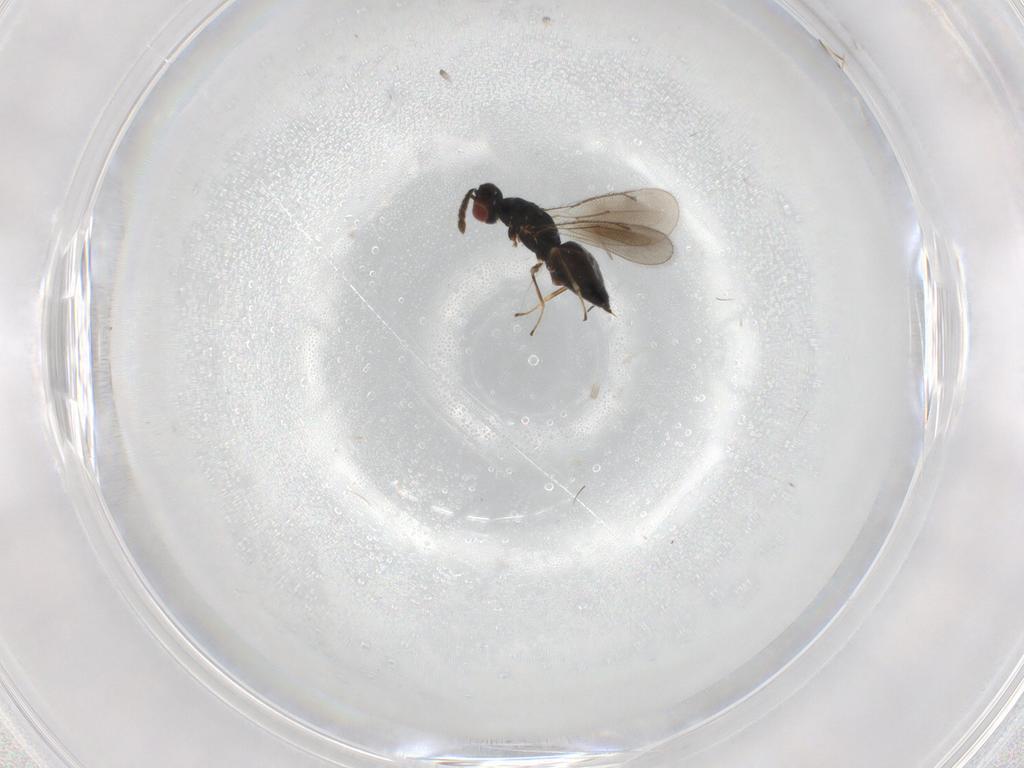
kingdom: Animalia
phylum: Arthropoda
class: Insecta
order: Hymenoptera
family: Eulophidae
